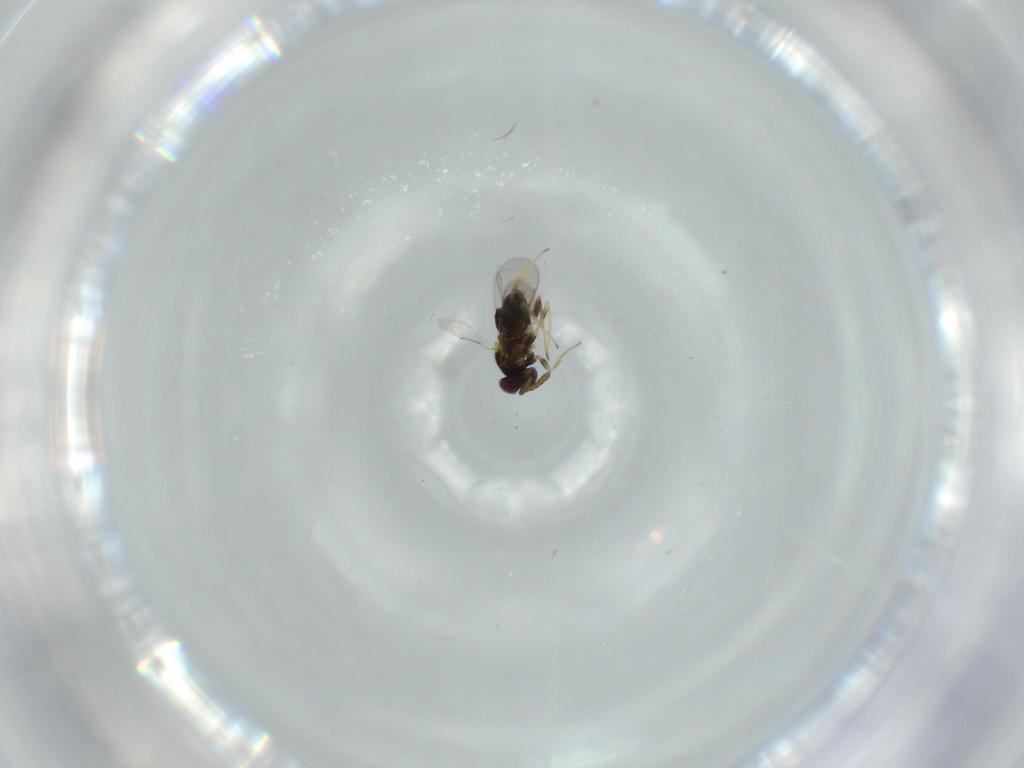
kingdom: Animalia
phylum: Arthropoda
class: Insecta
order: Hymenoptera
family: Aphelinidae
